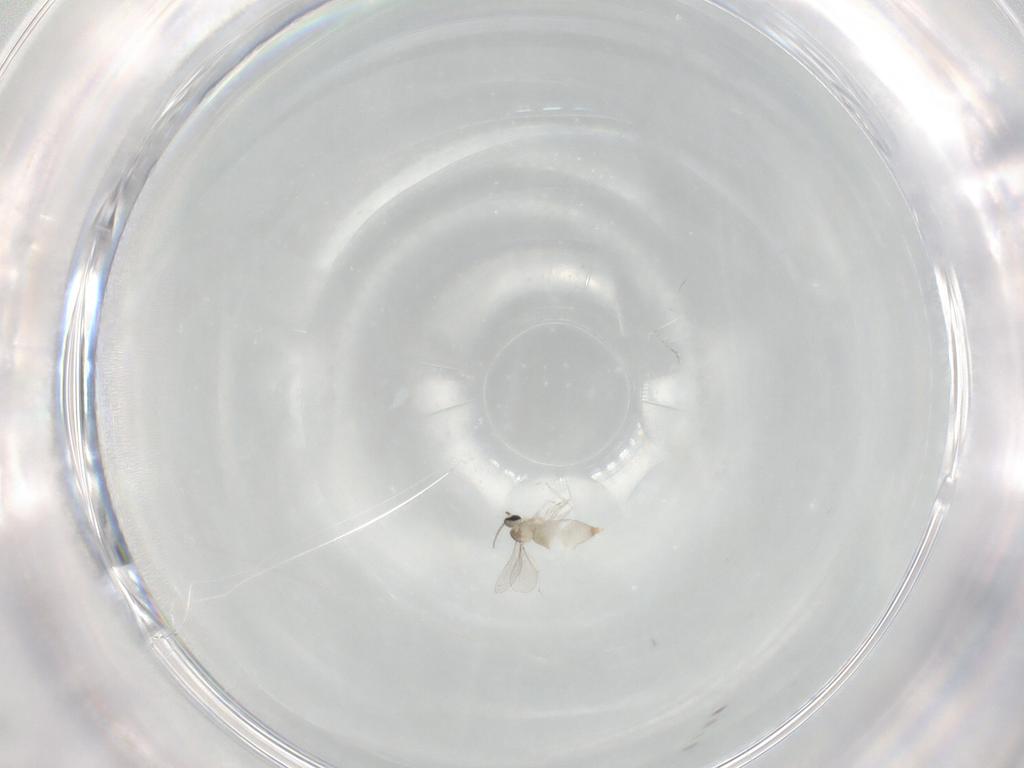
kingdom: Animalia
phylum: Arthropoda
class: Insecta
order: Diptera
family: Cecidomyiidae
